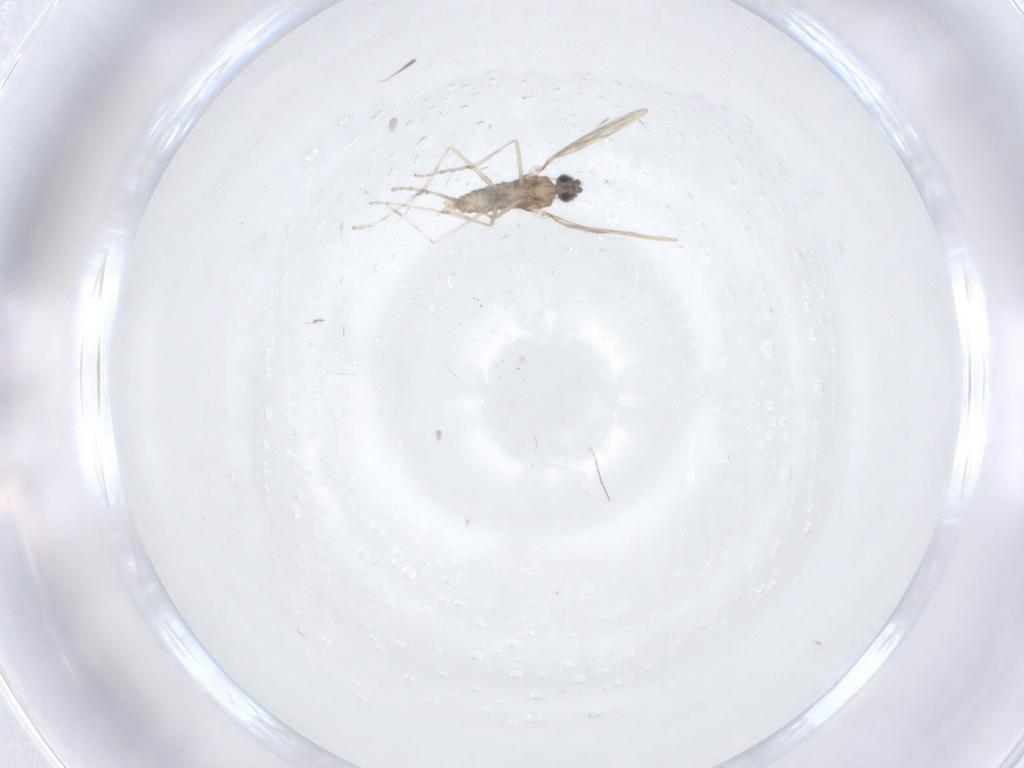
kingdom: Animalia
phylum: Arthropoda
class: Insecta
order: Diptera
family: Cecidomyiidae
